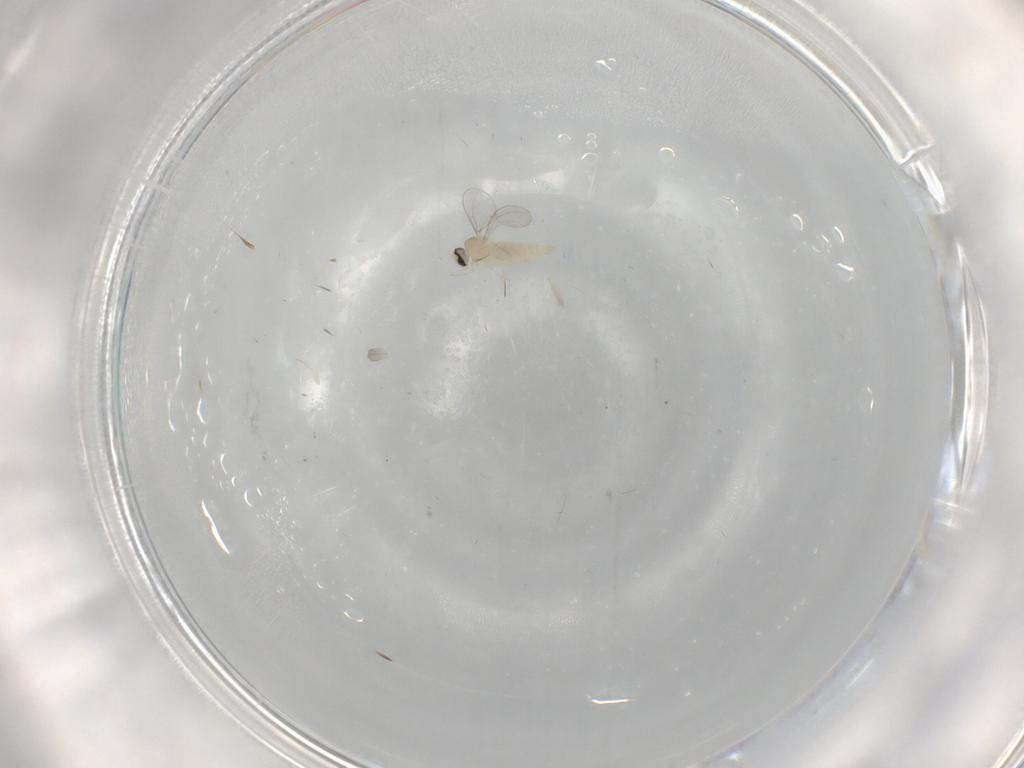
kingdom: Animalia
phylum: Arthropoda
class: Insecta
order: Diptera
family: Cecidomyiidae
